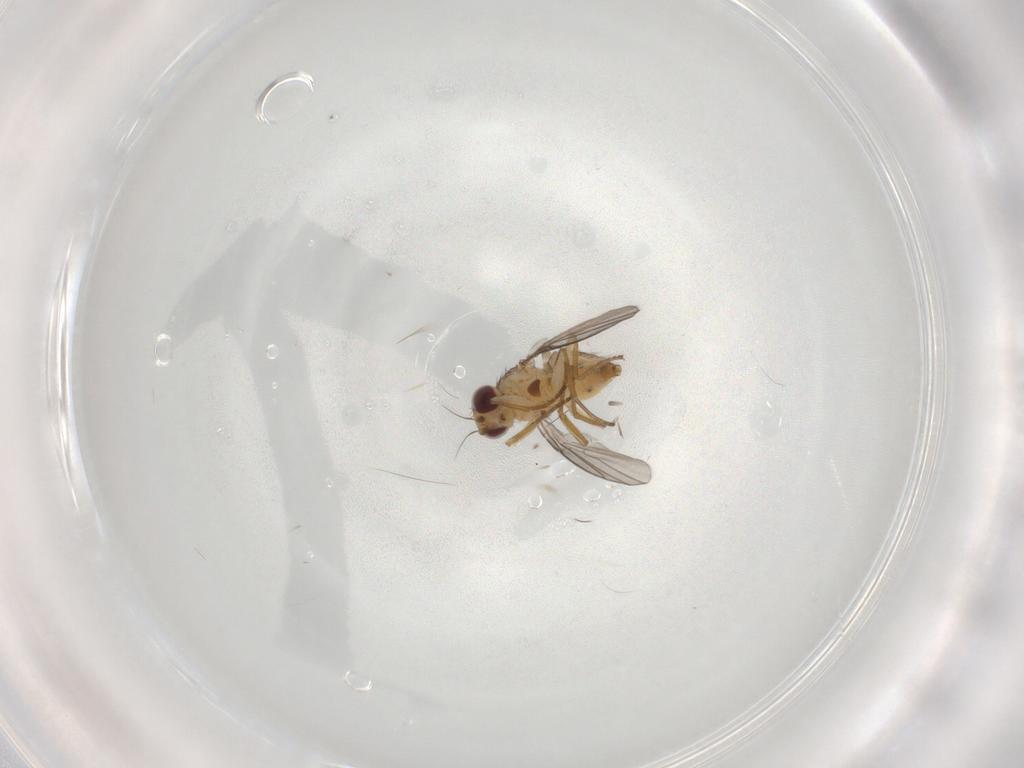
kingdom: Animalia
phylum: Arthropoda
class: Insecta
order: Diptera
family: Agromyzidae
